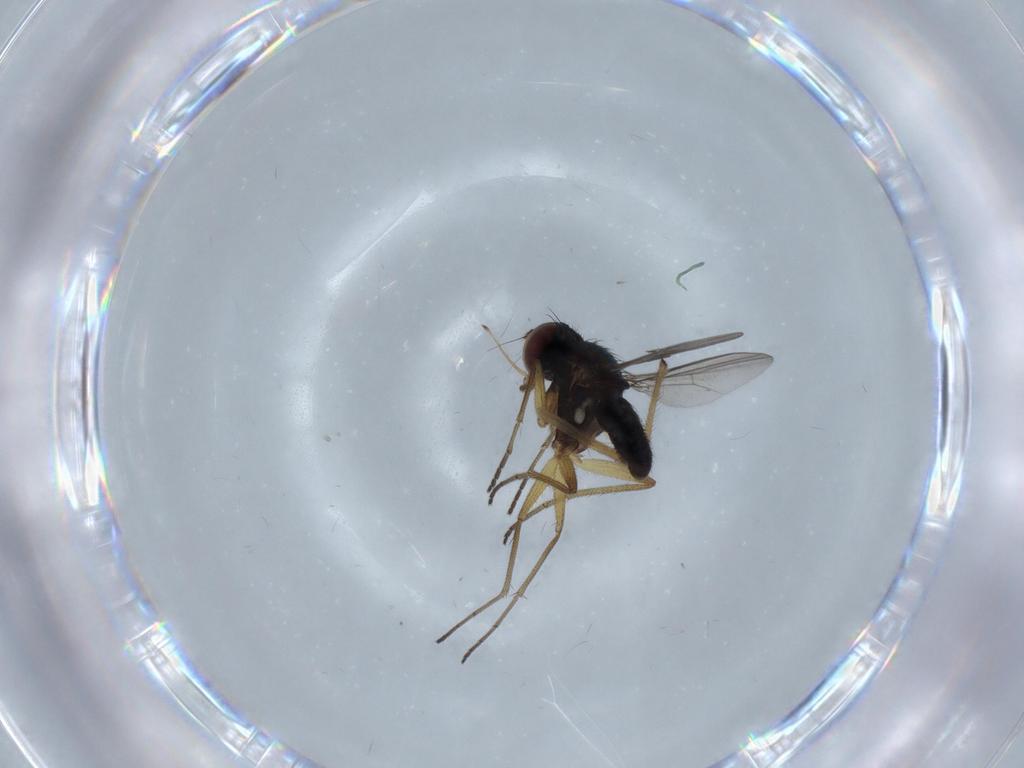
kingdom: Animalia
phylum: Arthropoda
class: Insecta
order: Diptera
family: Dolichopodidae
